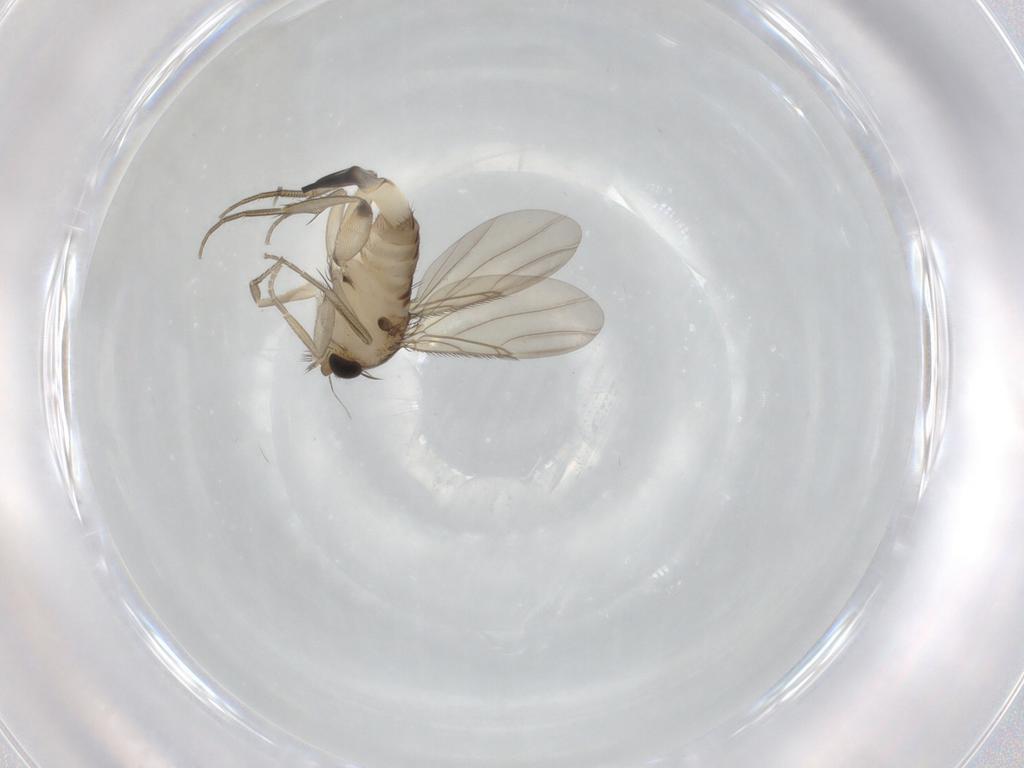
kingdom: Animalia
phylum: Arthropoda
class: Insecta
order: Diptera
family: Phoridae
